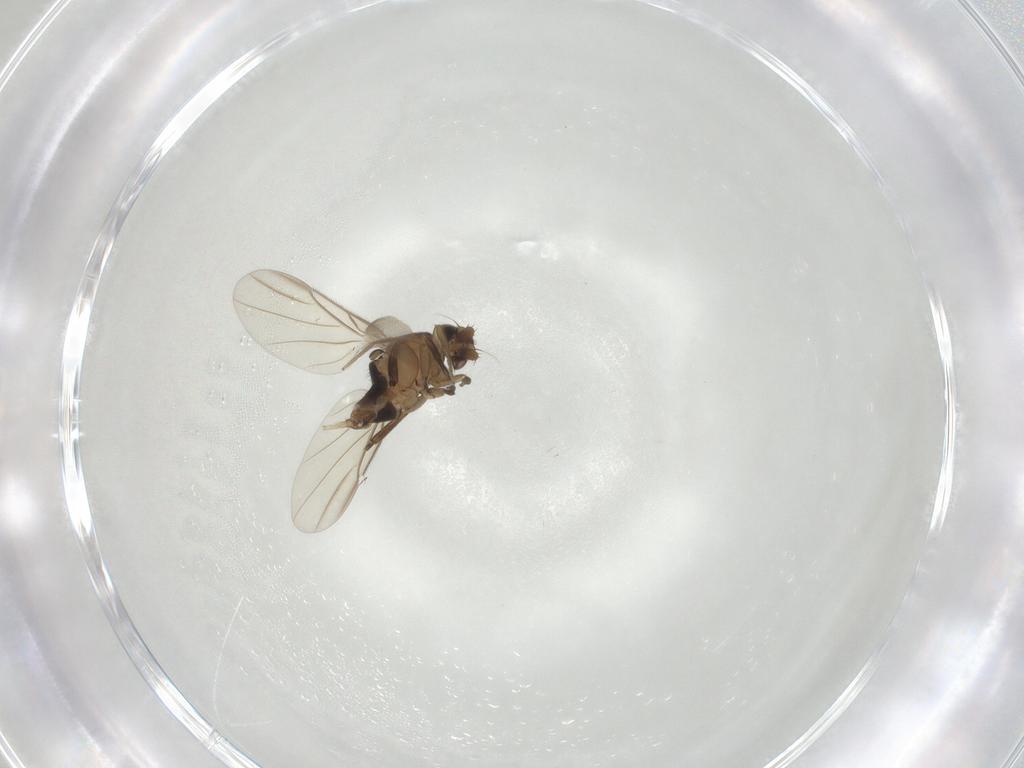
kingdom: Animalia
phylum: Arthropoda
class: Insecta
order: Diptera
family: Phoridae
